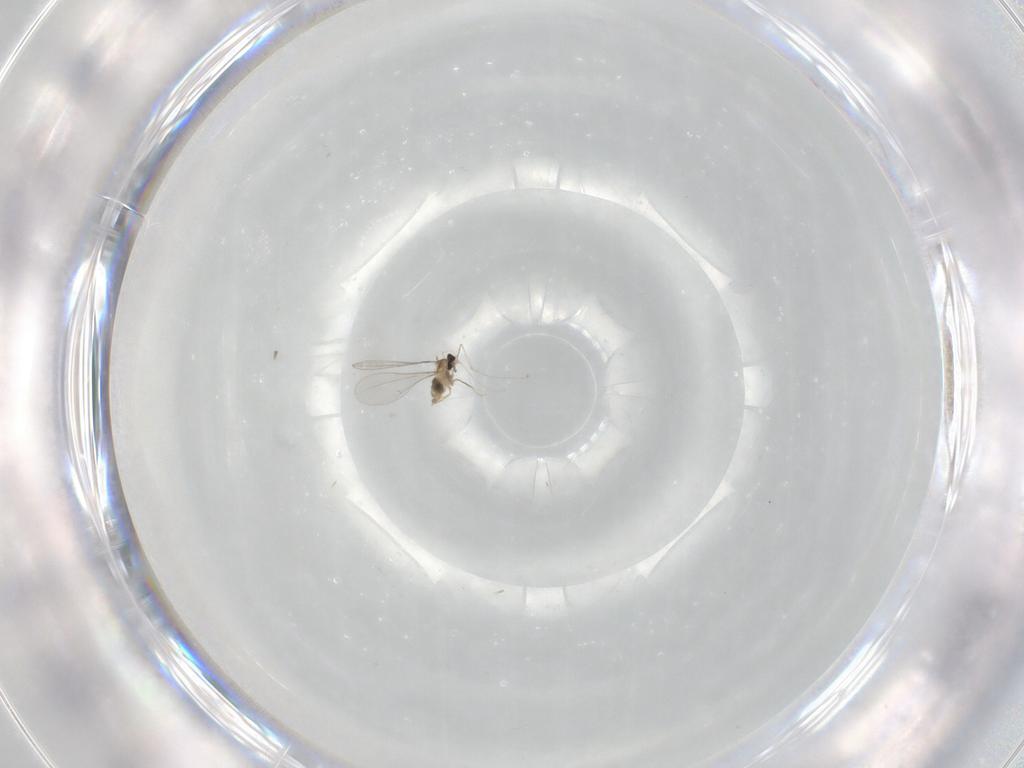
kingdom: Animalia
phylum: Arthropoda
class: Insecta
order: Diptera
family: Cecidomyiidae
